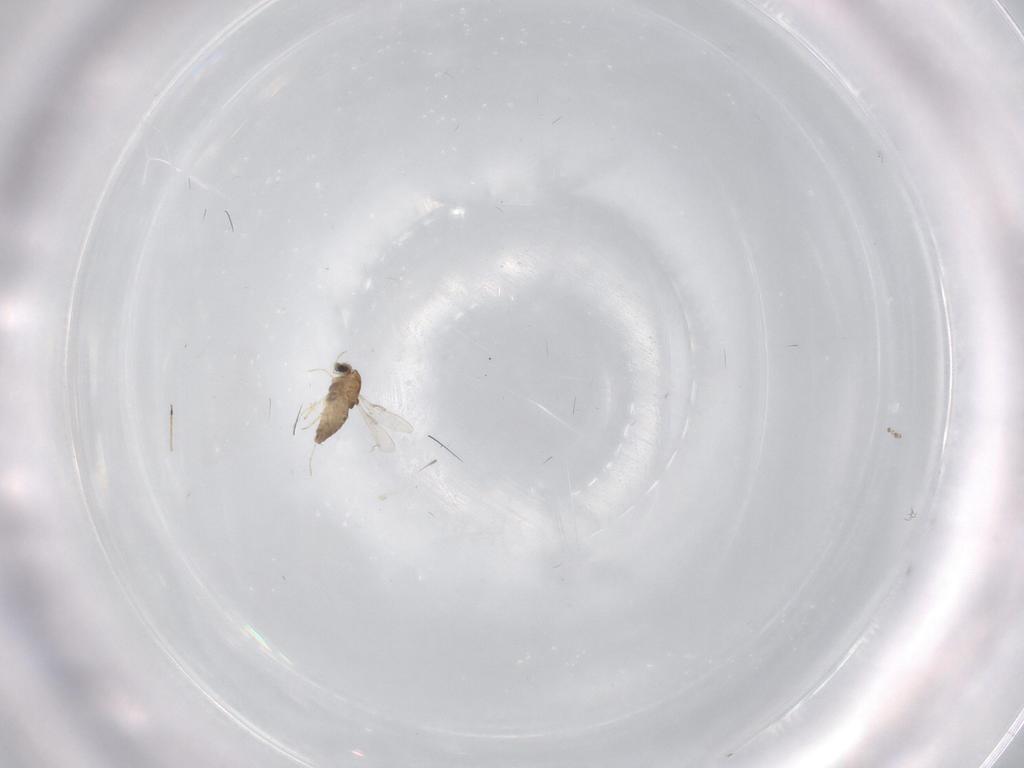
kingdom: Animalia
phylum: Arthropoda
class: Insecta
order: Diptera
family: Chironomidae
